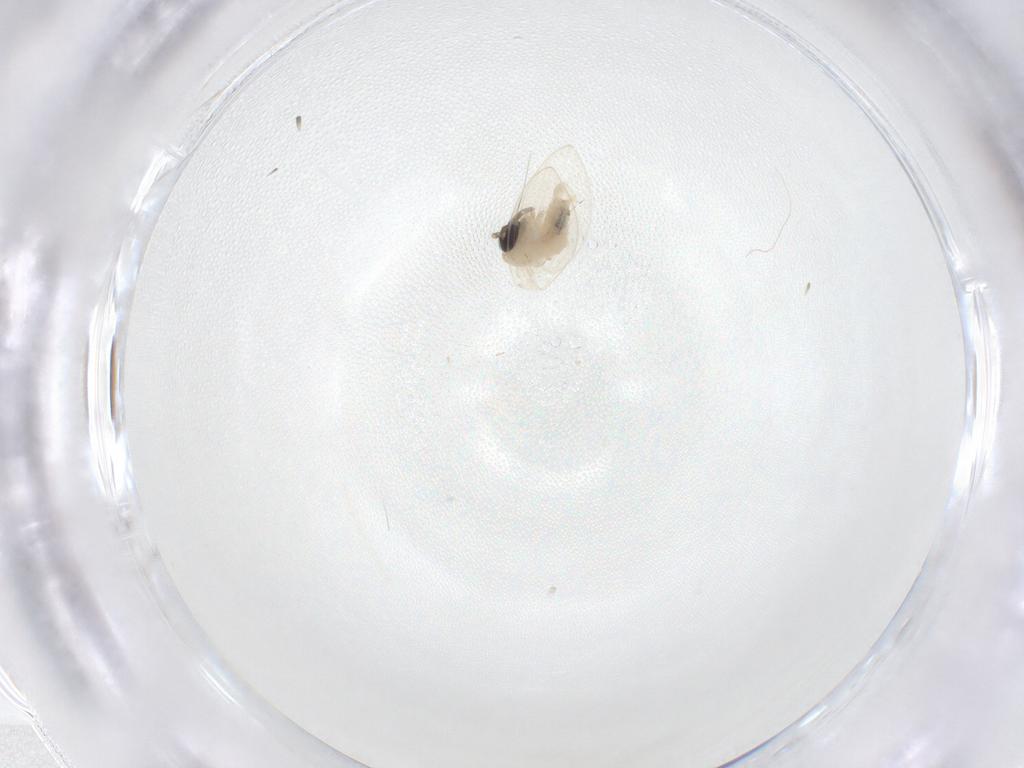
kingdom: Animalia
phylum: Arthropoda
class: Insecta
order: Diptera
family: Psychodidae
